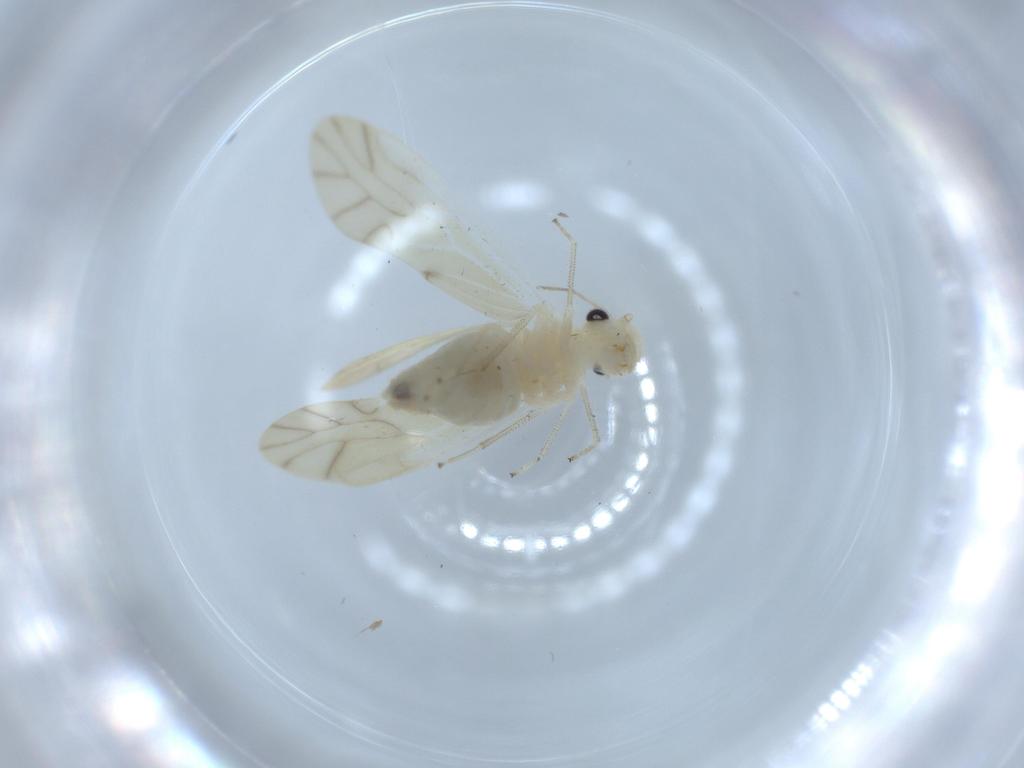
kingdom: Animalia
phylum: Arthropoda
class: Insecta
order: Psocodea
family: Caeciliusidae
